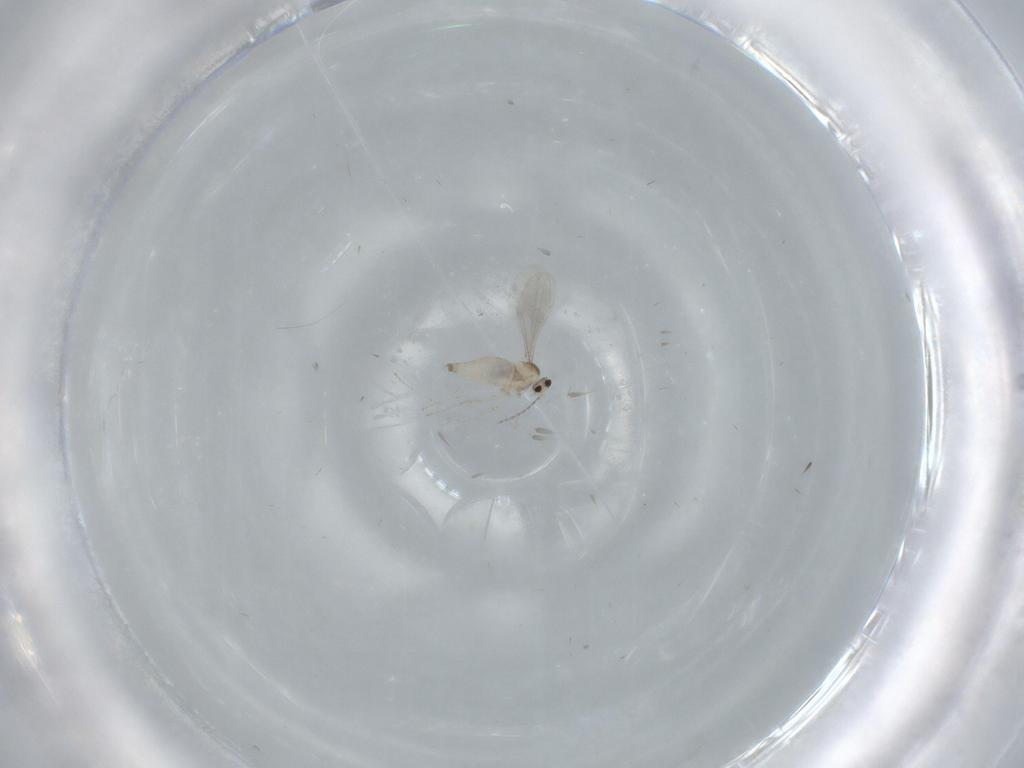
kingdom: Animalia
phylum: Arthropoda
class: Insecta
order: Diptera
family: Cecidomyiidae
